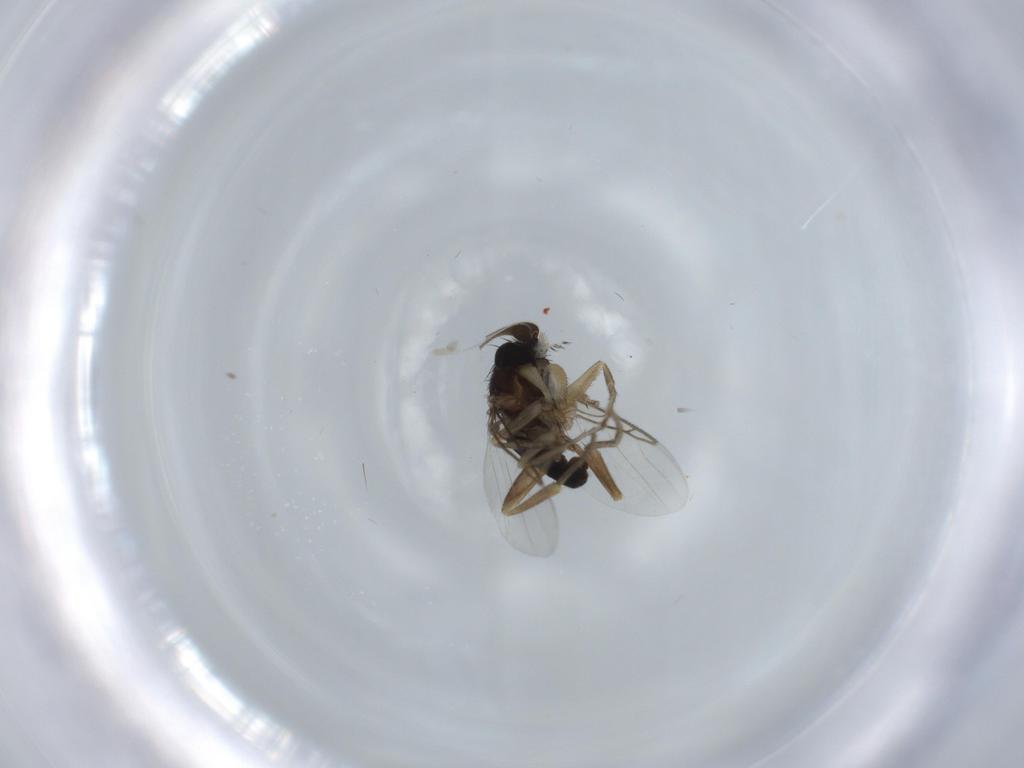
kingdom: Animalia
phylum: Arthropoda
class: Insecta
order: Diptera
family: Phoridae
